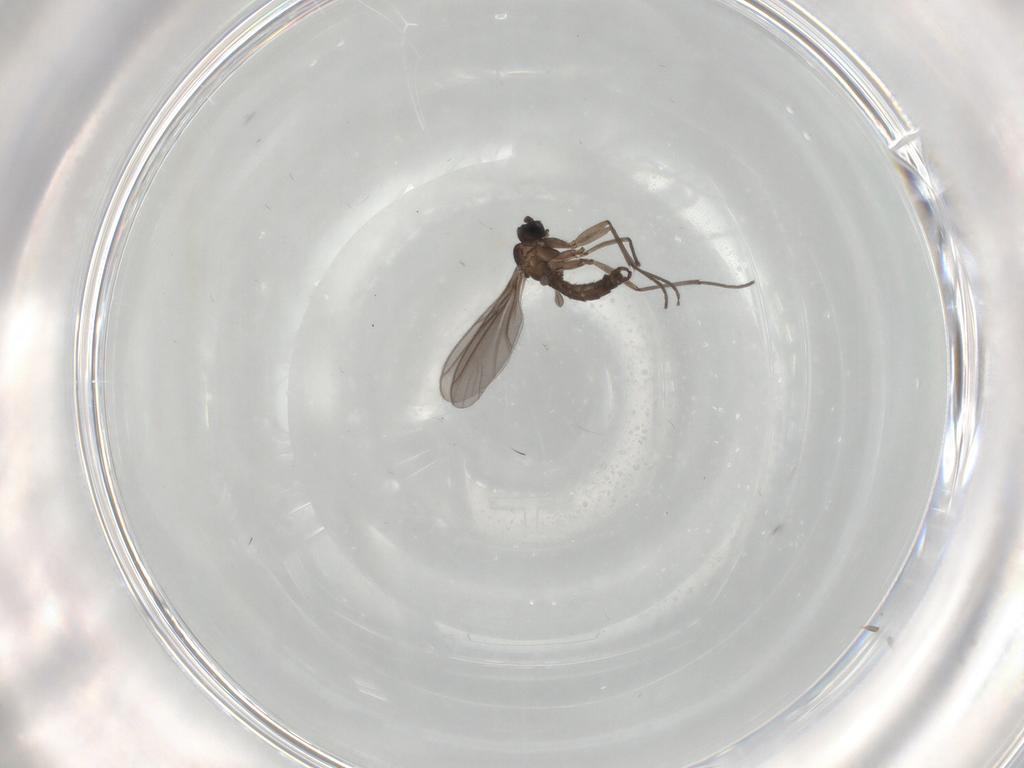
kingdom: Animalia
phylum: Arthropoda
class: Insecta
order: Diptera
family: Sciaridae
